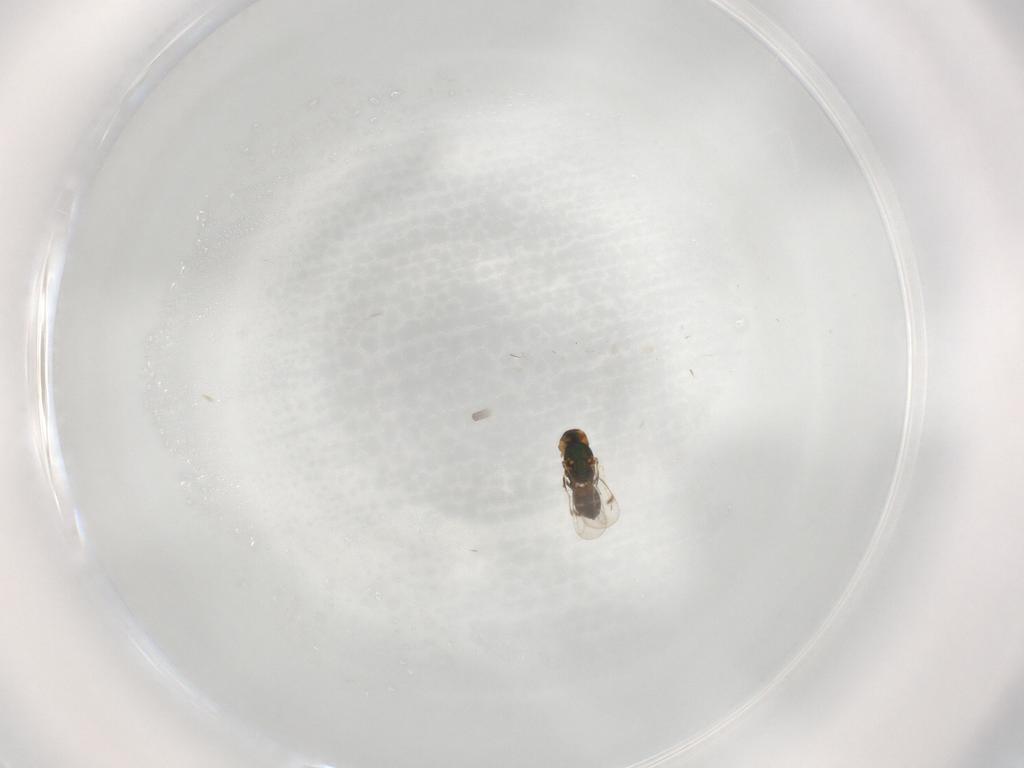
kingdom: Animalia
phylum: Arthropoda
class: Insecta
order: Hymenoptera
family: Eulophidae
